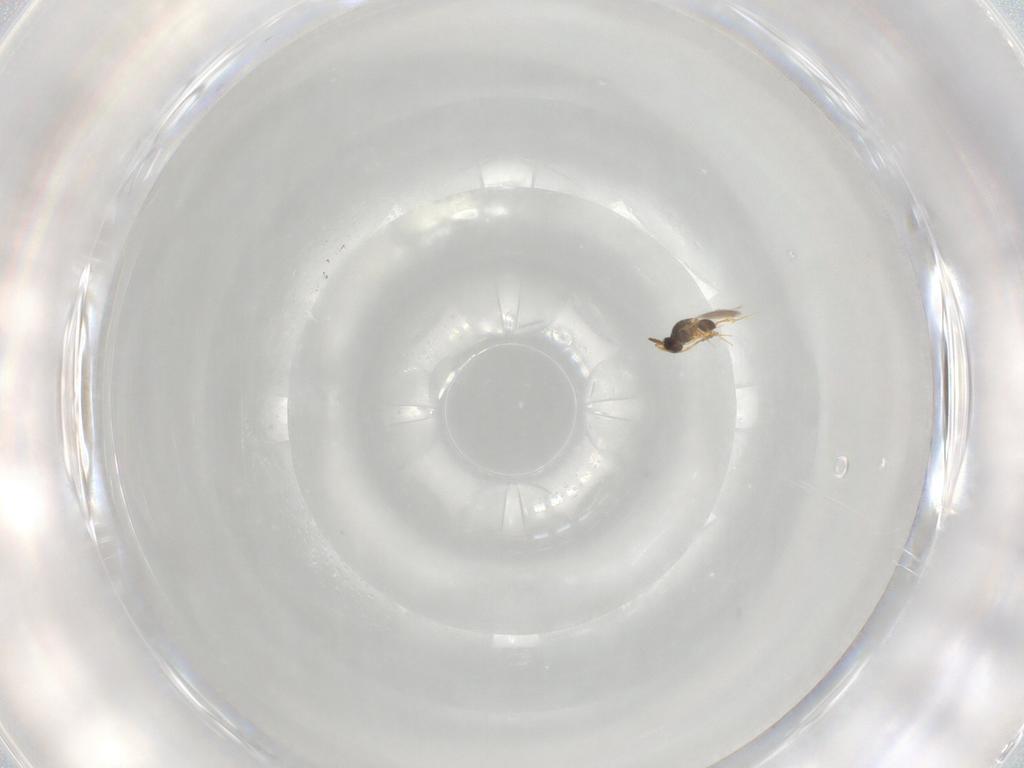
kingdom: Animalia
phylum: Arthropoda
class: Insecta
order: Hymenoptera
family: Platygastridae
